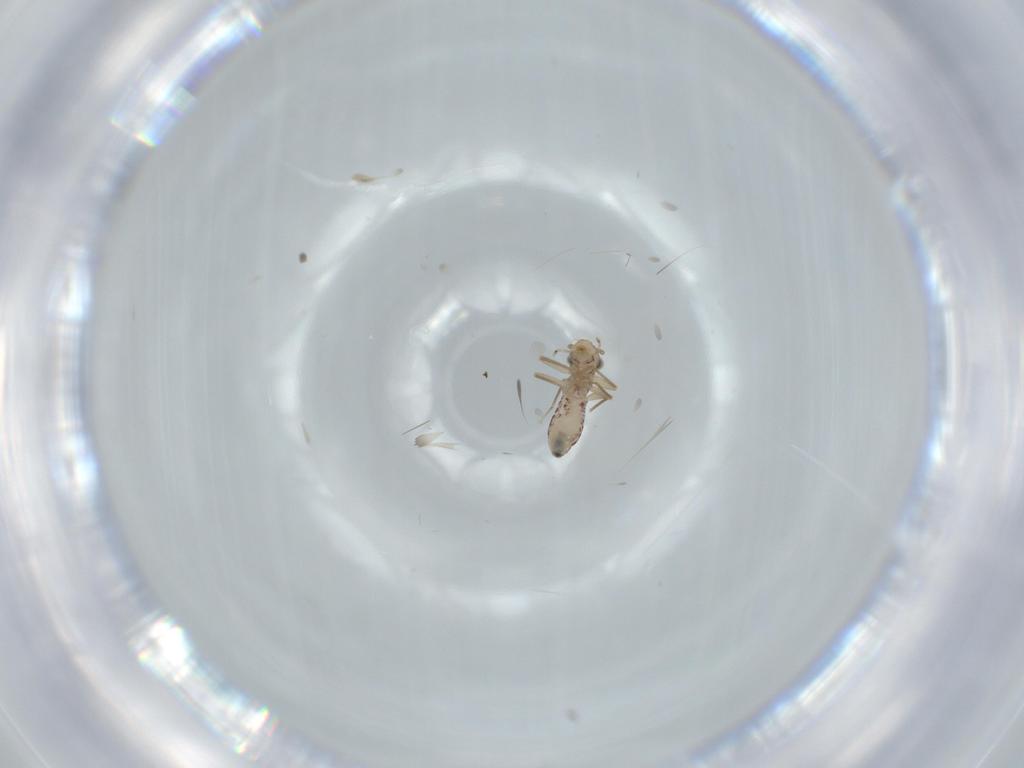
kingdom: Animalia
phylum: Arthropoda
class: Insecta
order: Psocodea
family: Lepidopsocidae
